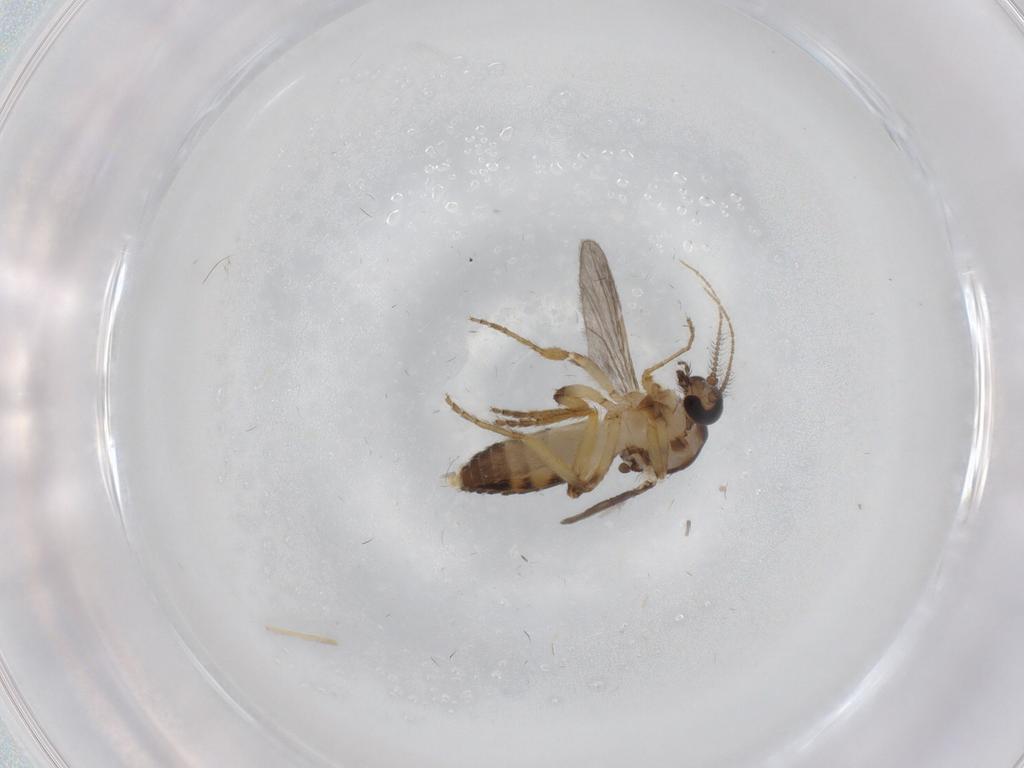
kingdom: Animalia
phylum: Arthropoda
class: Insecta
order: Diptera
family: Ceratopogonidae
